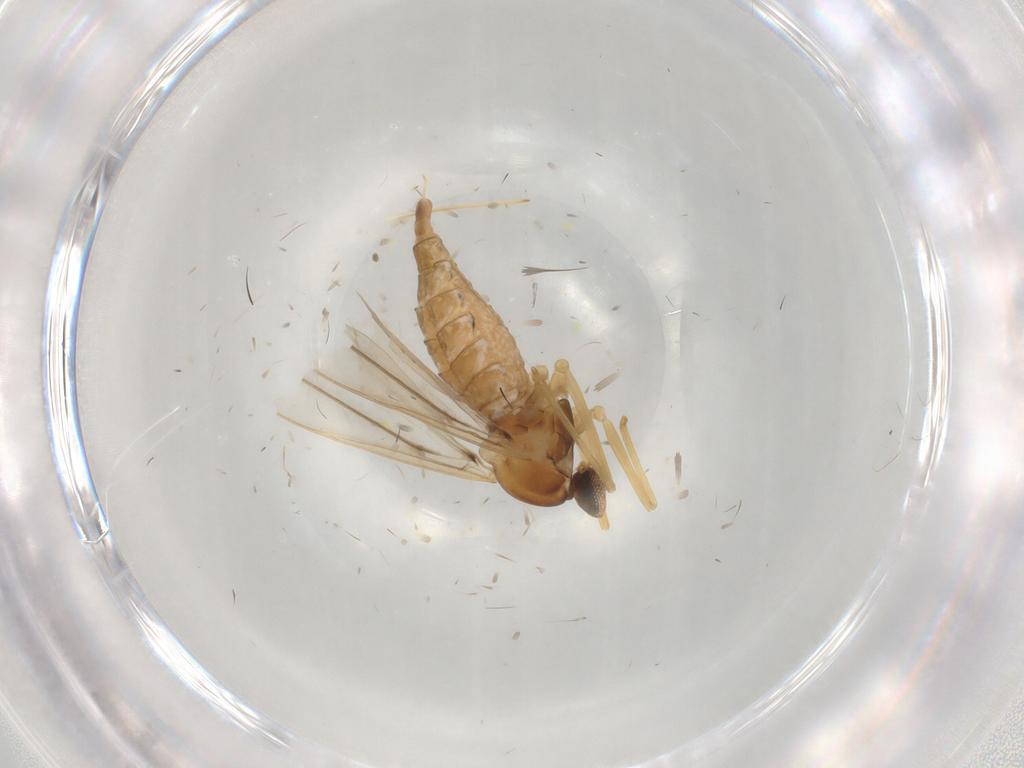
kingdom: Animalia
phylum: Arthropoda
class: Insecta
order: Diptera
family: Cecidomyiidae
